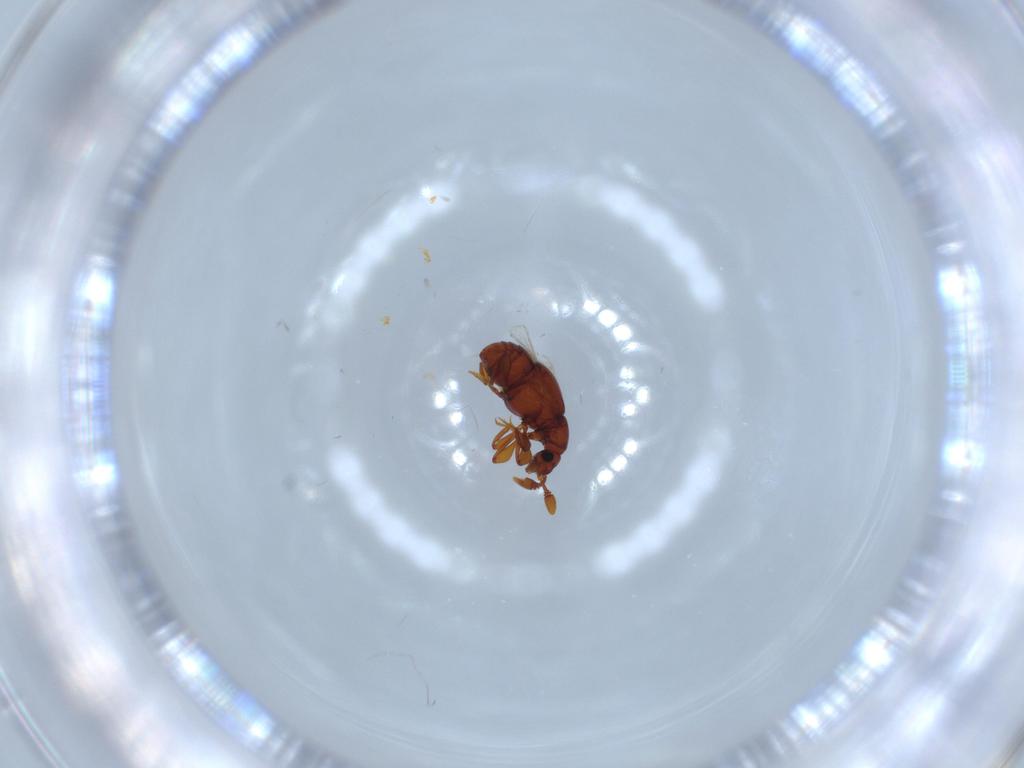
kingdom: Animalia
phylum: Arthropoda
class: Insecta
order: Coleoptera
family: Staphylinidae
